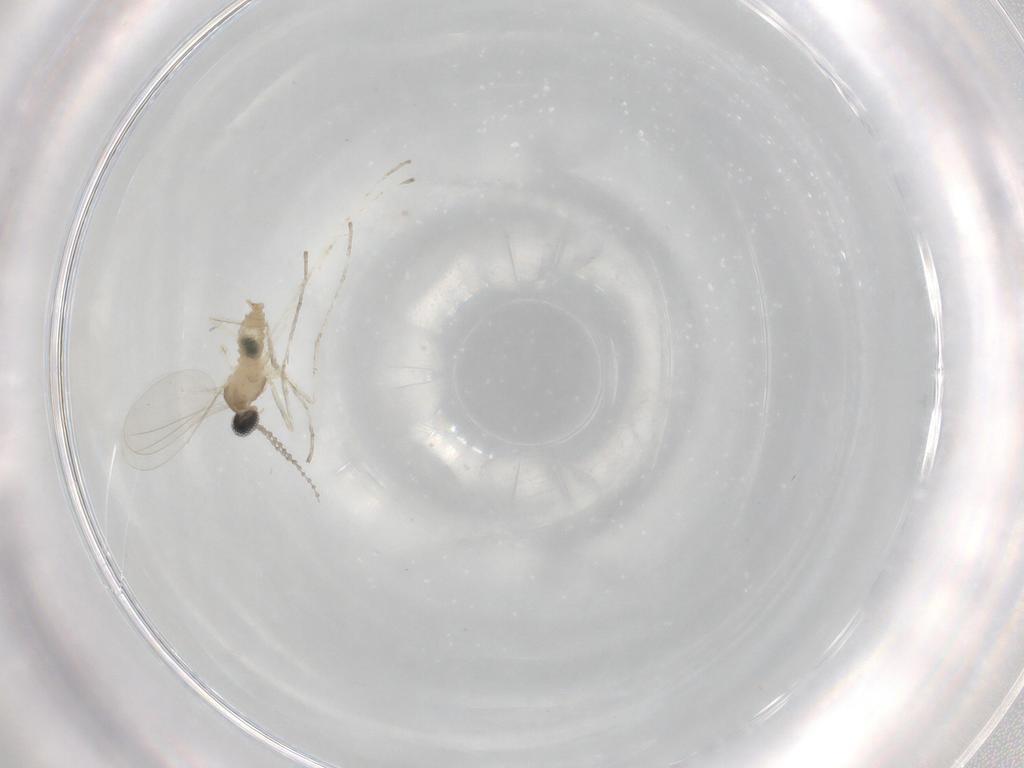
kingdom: Animalia
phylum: Arthropoda
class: Insecta
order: Diptera
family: Cecidomyiidae
